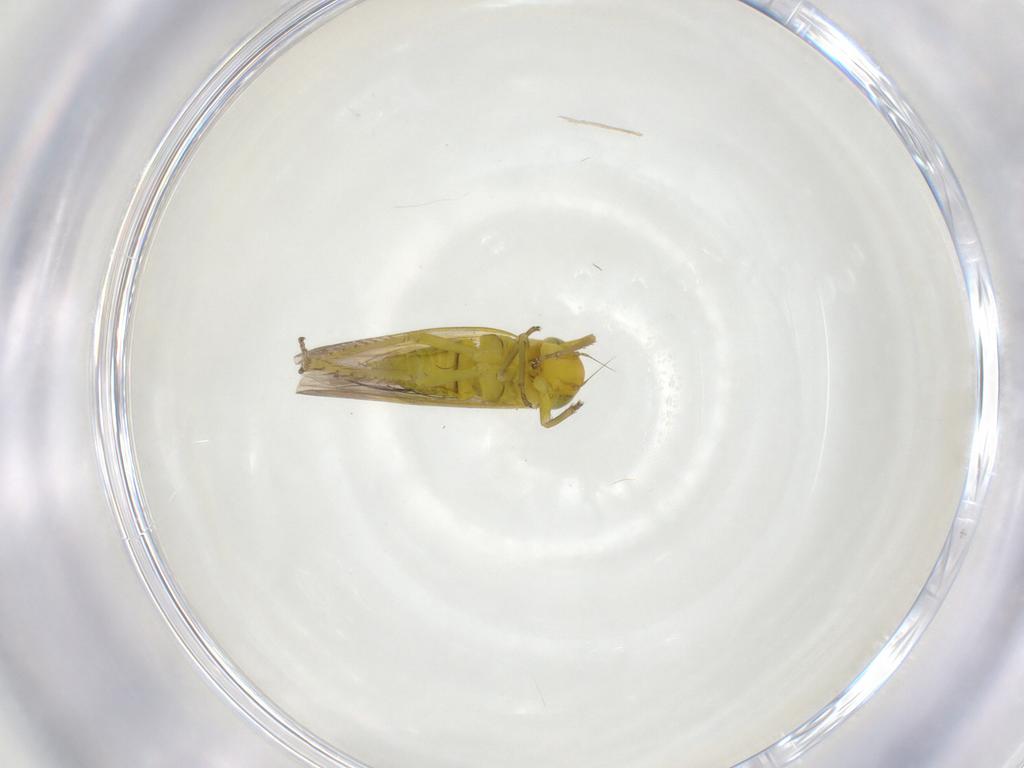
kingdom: Animalia
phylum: Arthropoda
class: Insecta
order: Hemiptera
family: Cicadellidae
